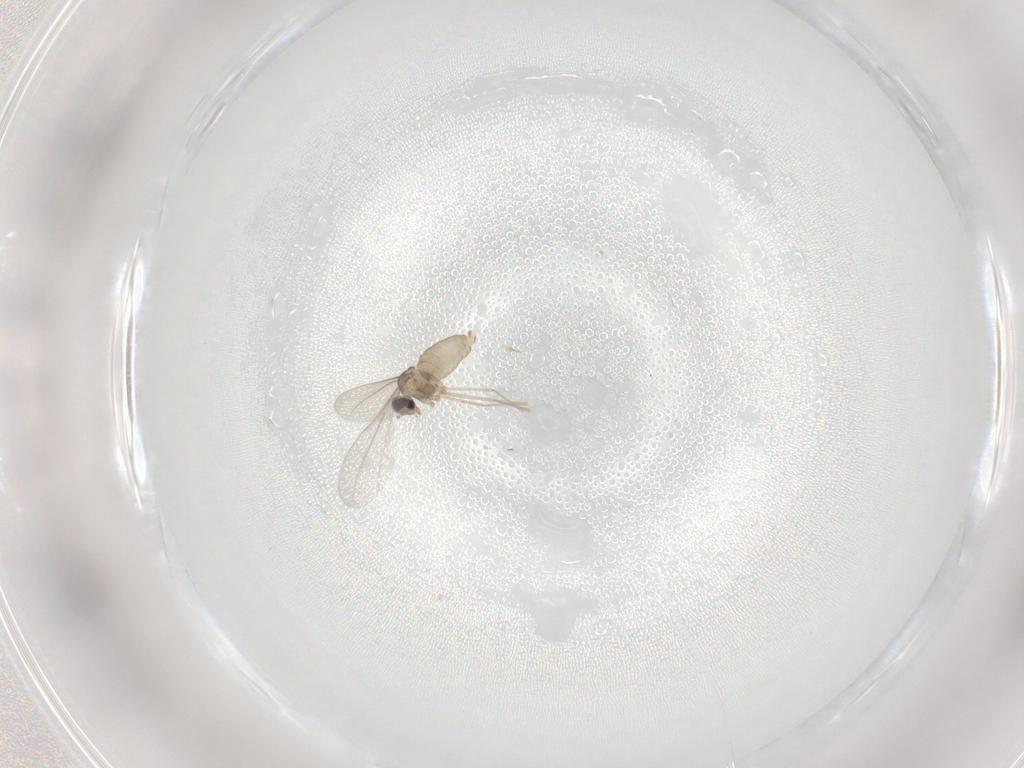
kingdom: Animalia
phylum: Arthropoda
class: Insecta
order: Diptera
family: Cecidomyiidae
